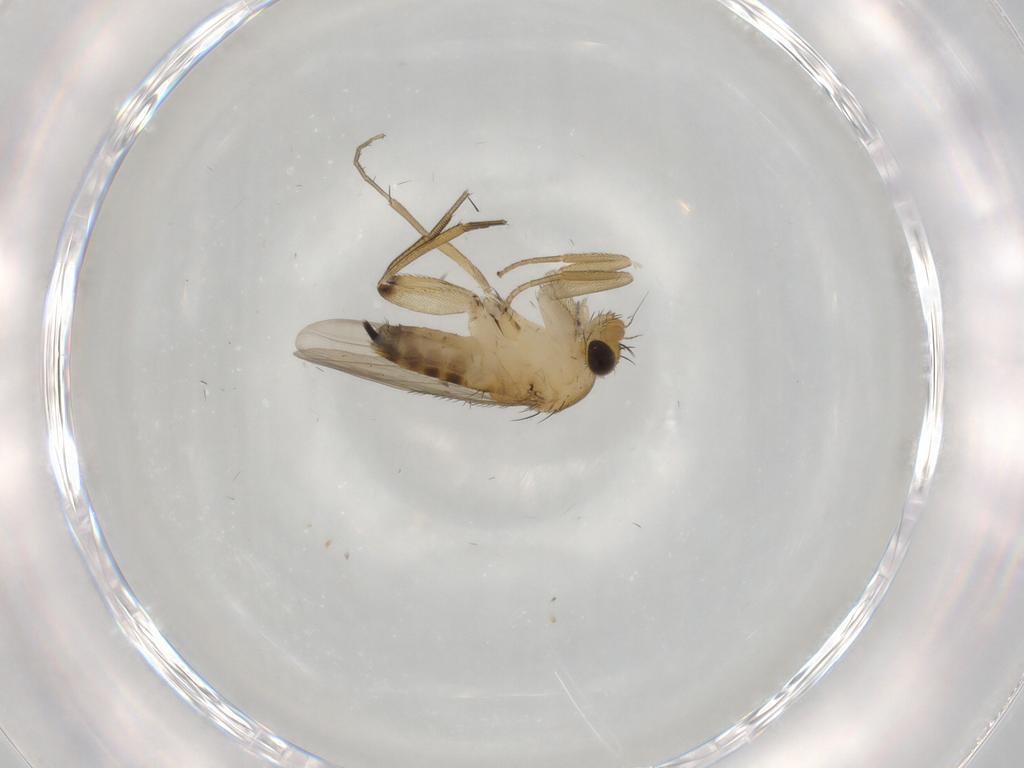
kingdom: Animalia
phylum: Arthropoda
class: Insecta
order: Diptera
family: Phoridae
